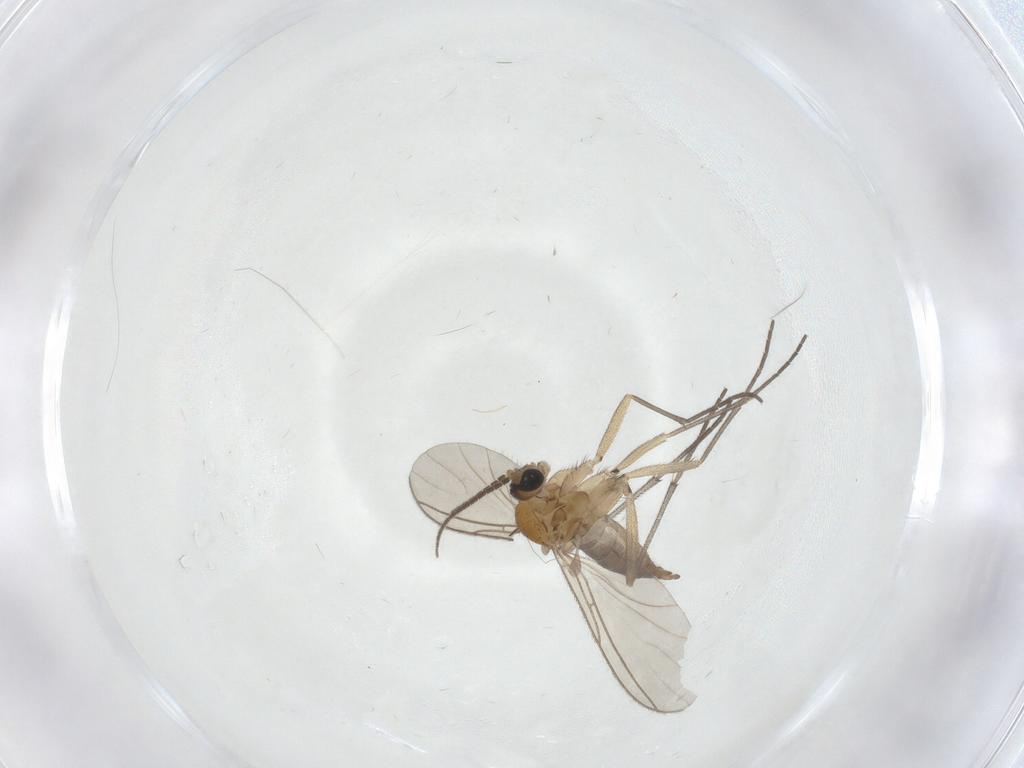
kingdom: Animalia
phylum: Arthropoda
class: Insecta
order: Diptera
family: Sciaridae
